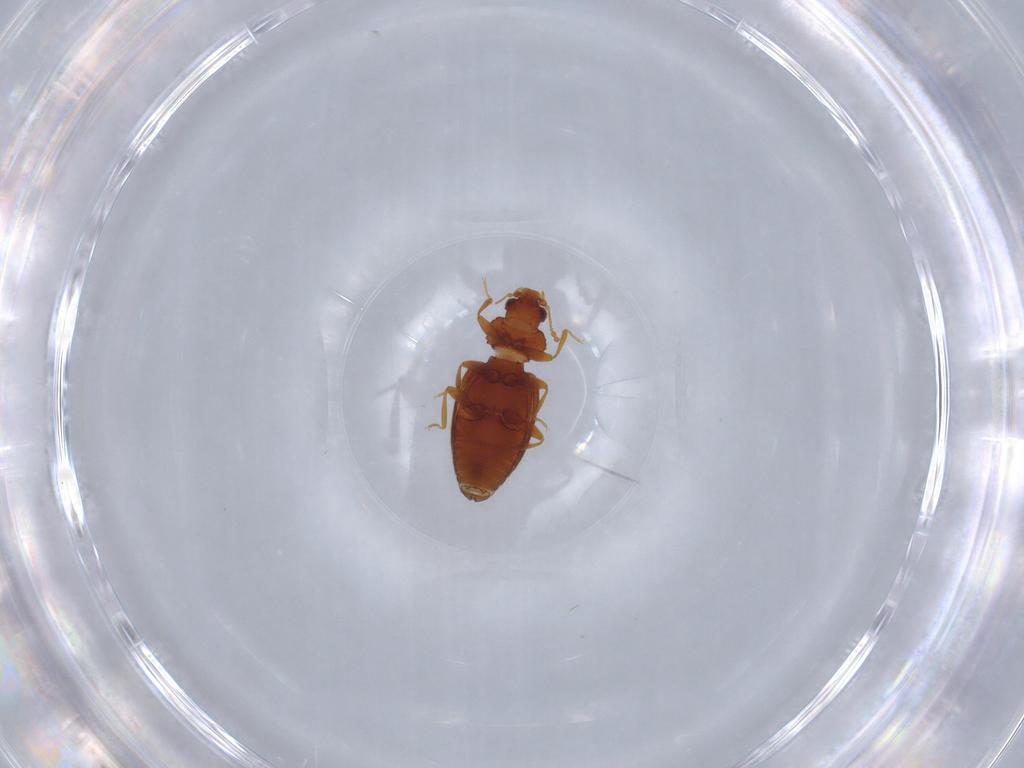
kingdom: Animalia
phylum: Arthropoda
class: Insecta
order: Coleoptera
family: Latridiidae
